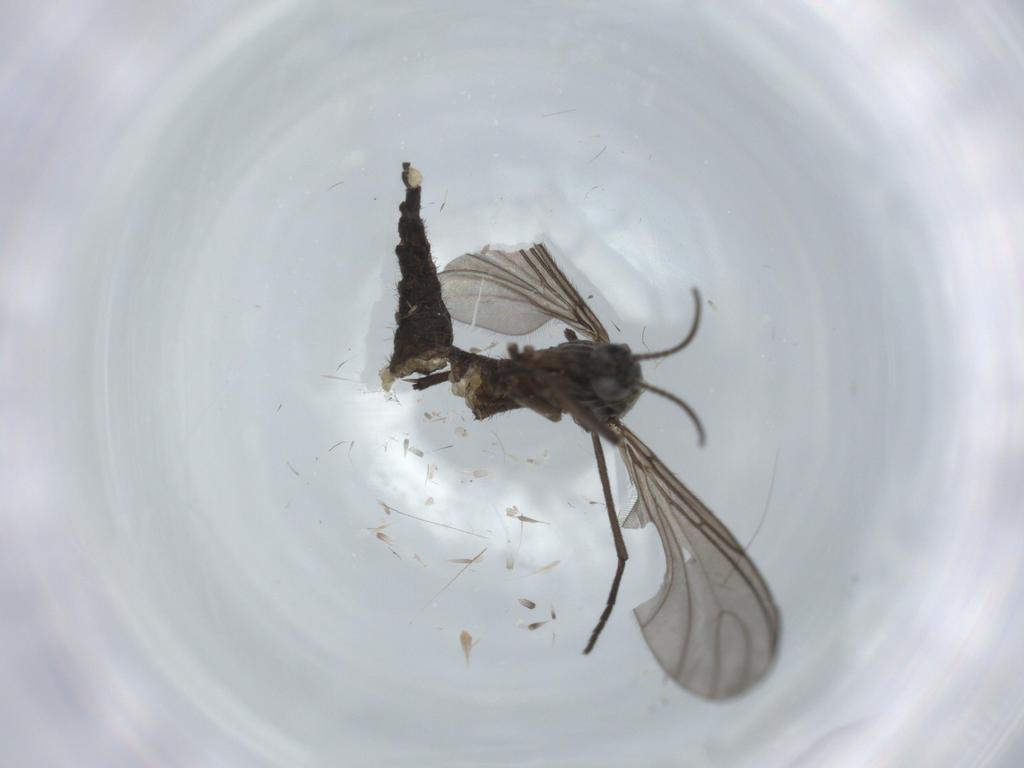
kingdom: Animalia
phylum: Arthropoda
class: Insecta
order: Diptera
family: Sciaridae
